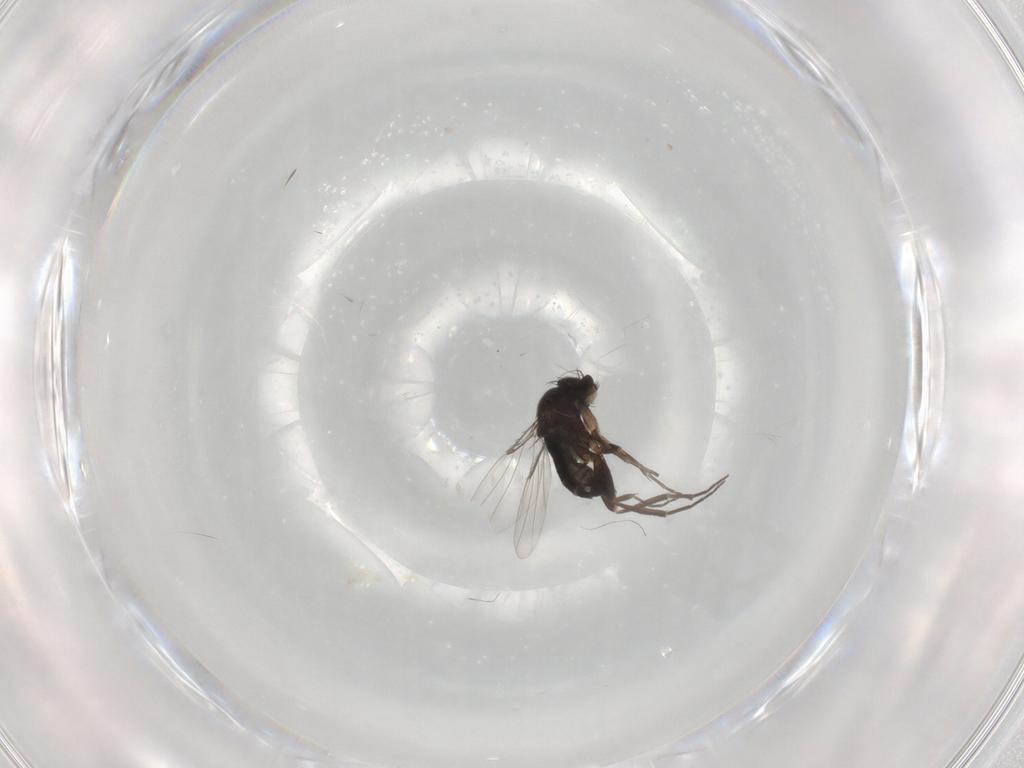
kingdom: Animalia
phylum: Arthropoda
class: Insecta
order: Diptera
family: Phoridae
